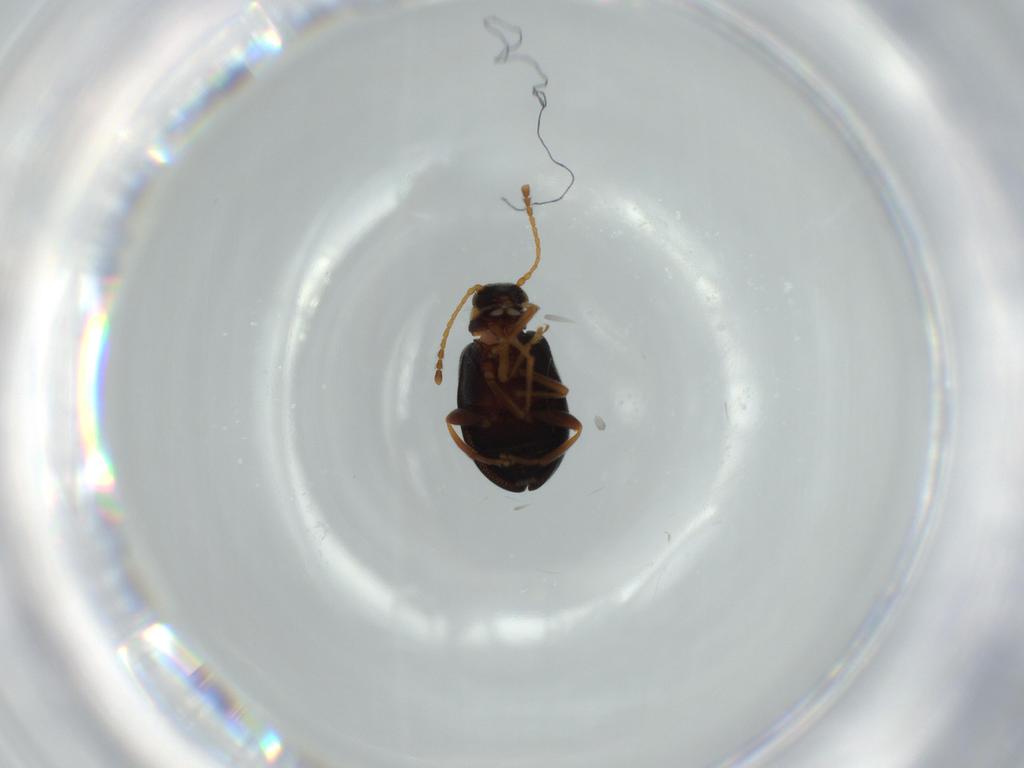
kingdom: Animalia
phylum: Arthropoda
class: Insecta
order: Coleoptera
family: Aderidae
